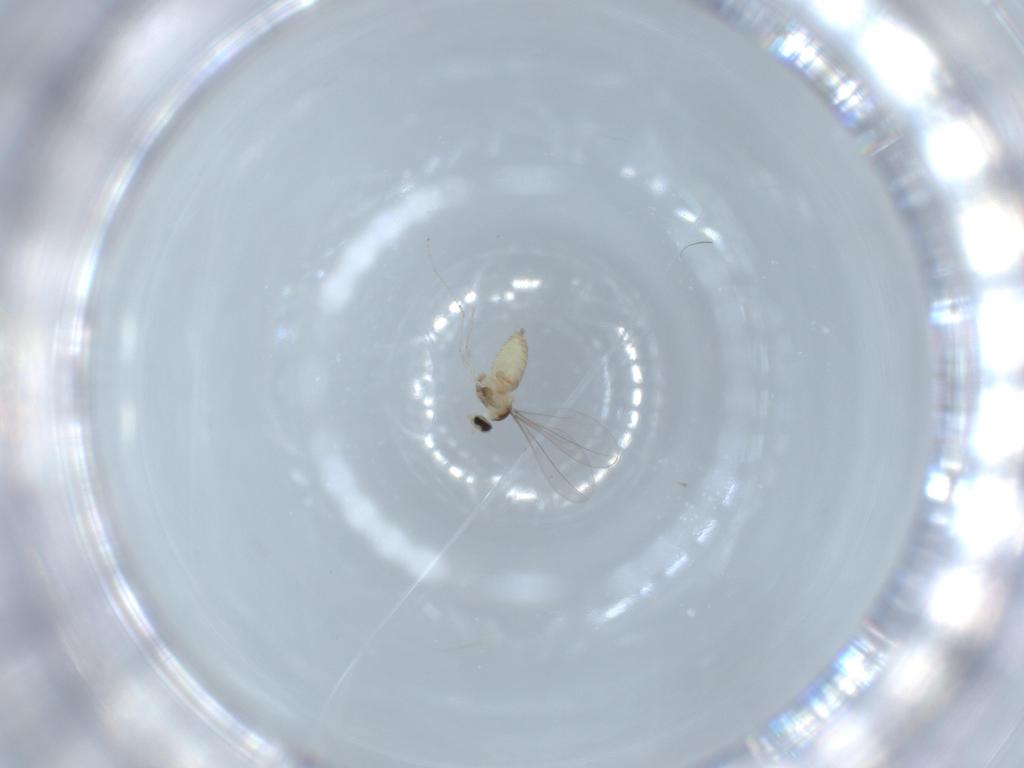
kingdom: Animalia
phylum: Arthropoda
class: Insecta
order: Diptera
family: Cecidomyiidae
